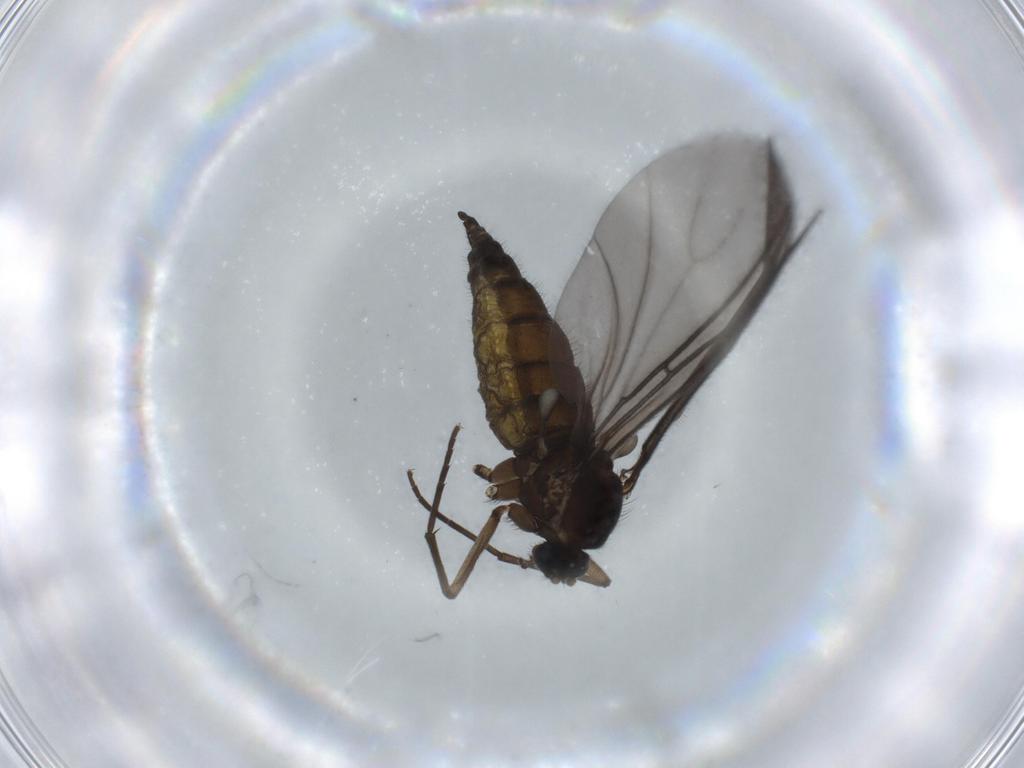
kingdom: Animalia
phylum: Arthropoda
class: Insecta
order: Diptera
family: Sciaridae
